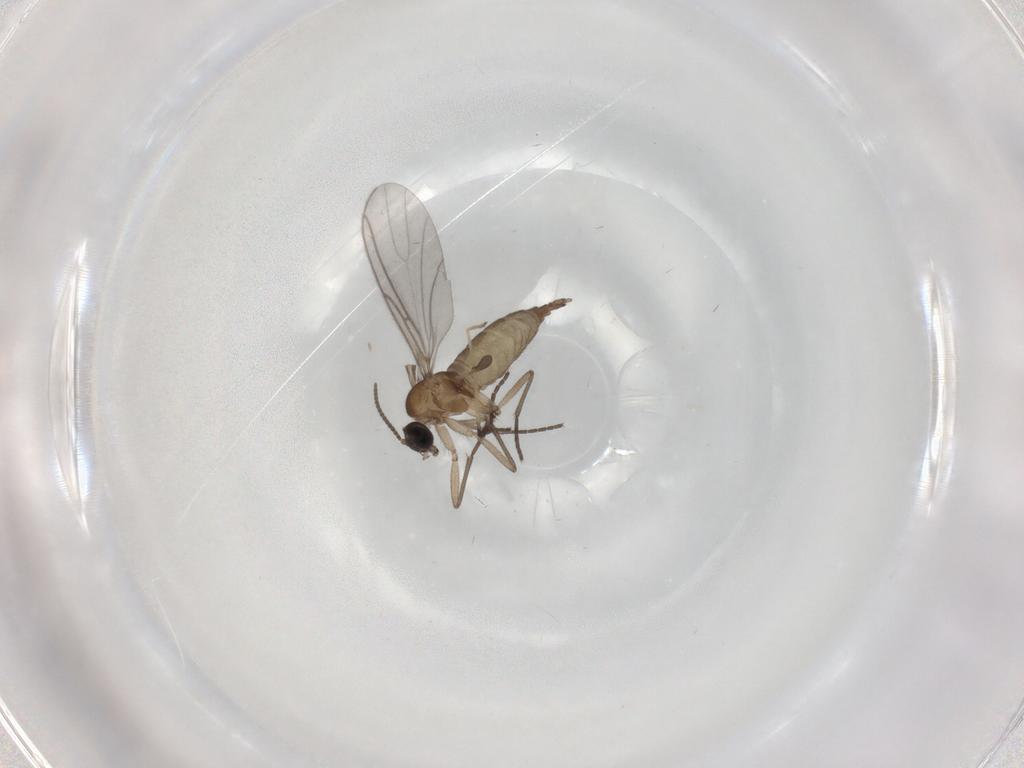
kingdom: Animalia
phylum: Arthropoda
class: Insecta
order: Diptera
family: Sciaridae
